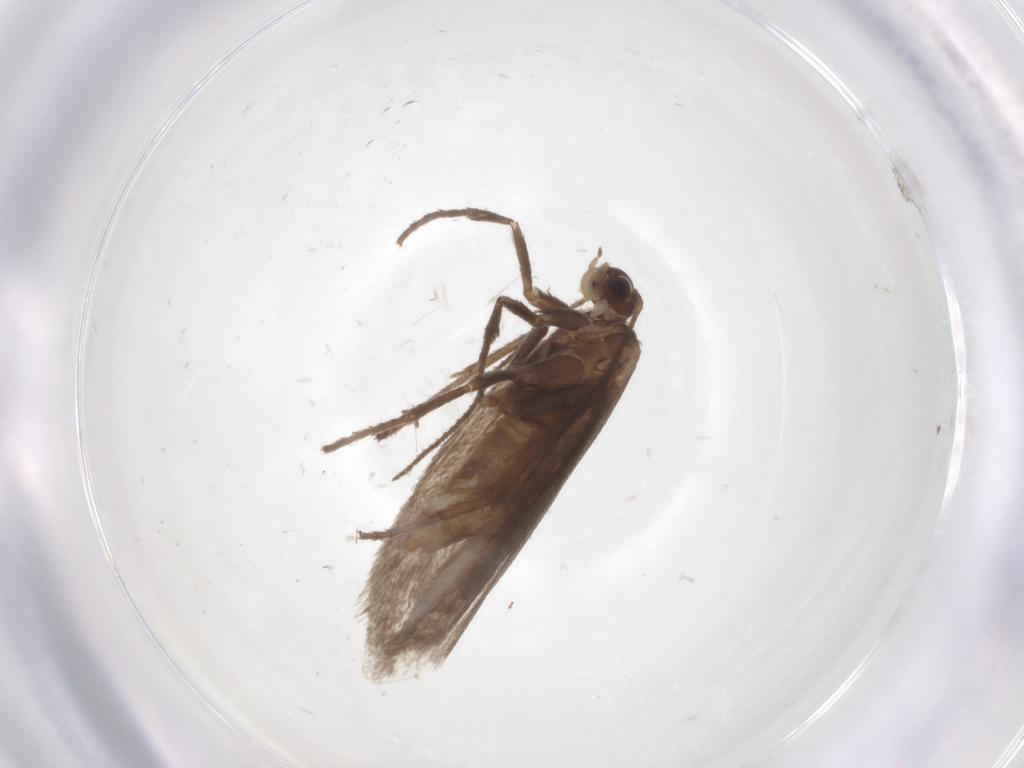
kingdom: Animalia
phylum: Arthropoda
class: Insecta
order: Lepidoptera
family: Limacodidae
